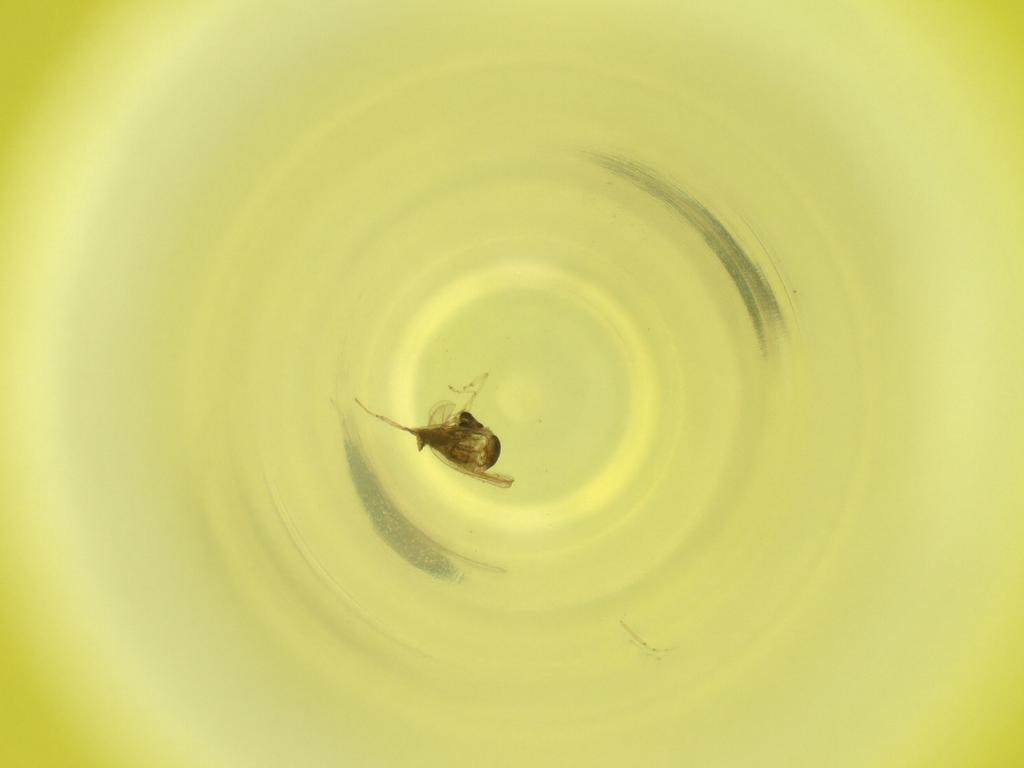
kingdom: Animalia
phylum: Arthropoda
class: Insecta
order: Diptera
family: Cecidomyiidae
